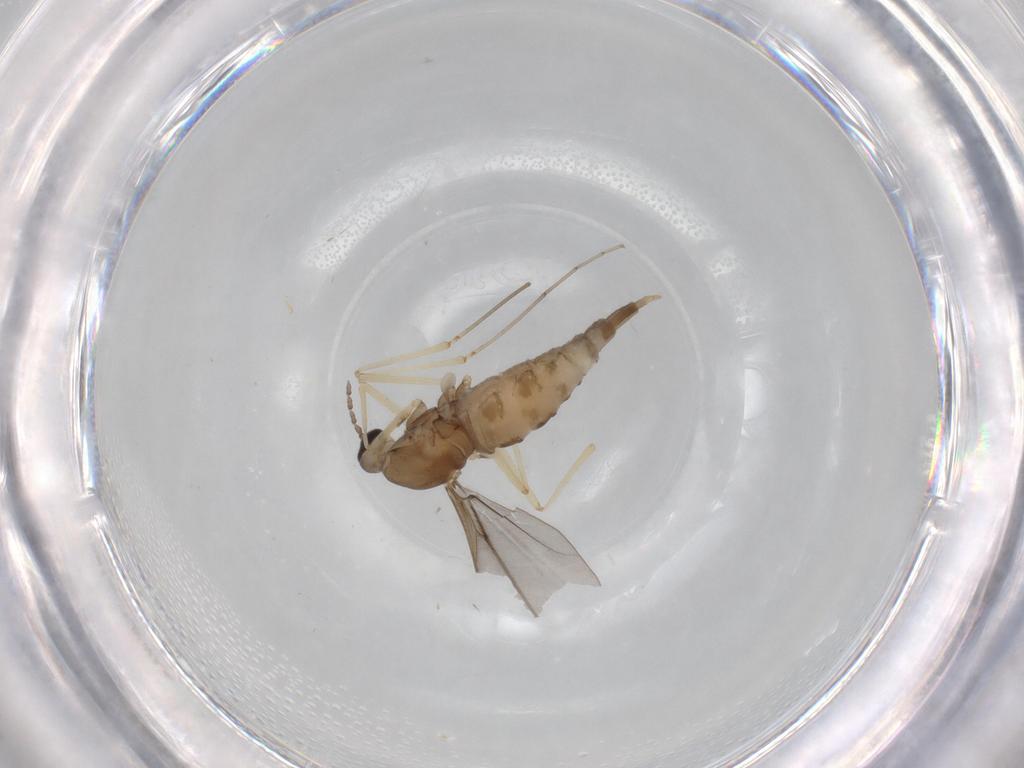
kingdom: Animalia
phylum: Arthropoda
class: Insecta
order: Diptera
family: Cecidomyiidae
